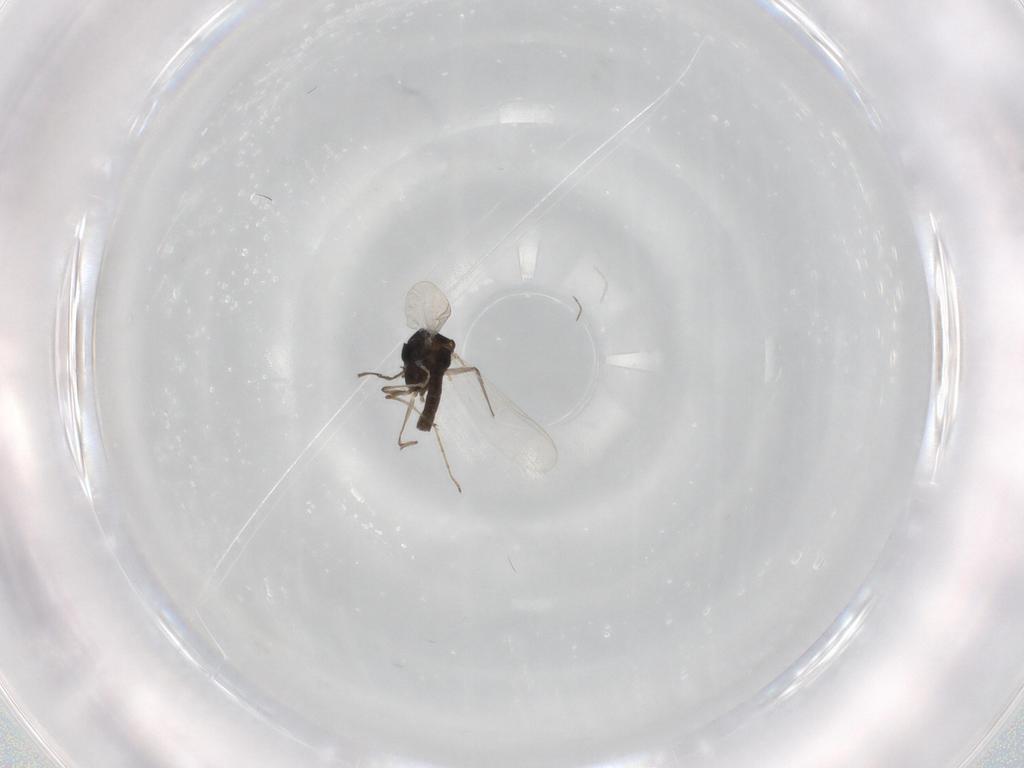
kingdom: Animalia
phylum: Arthropoda
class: Insecta
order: Diptera
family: Chironomidae
